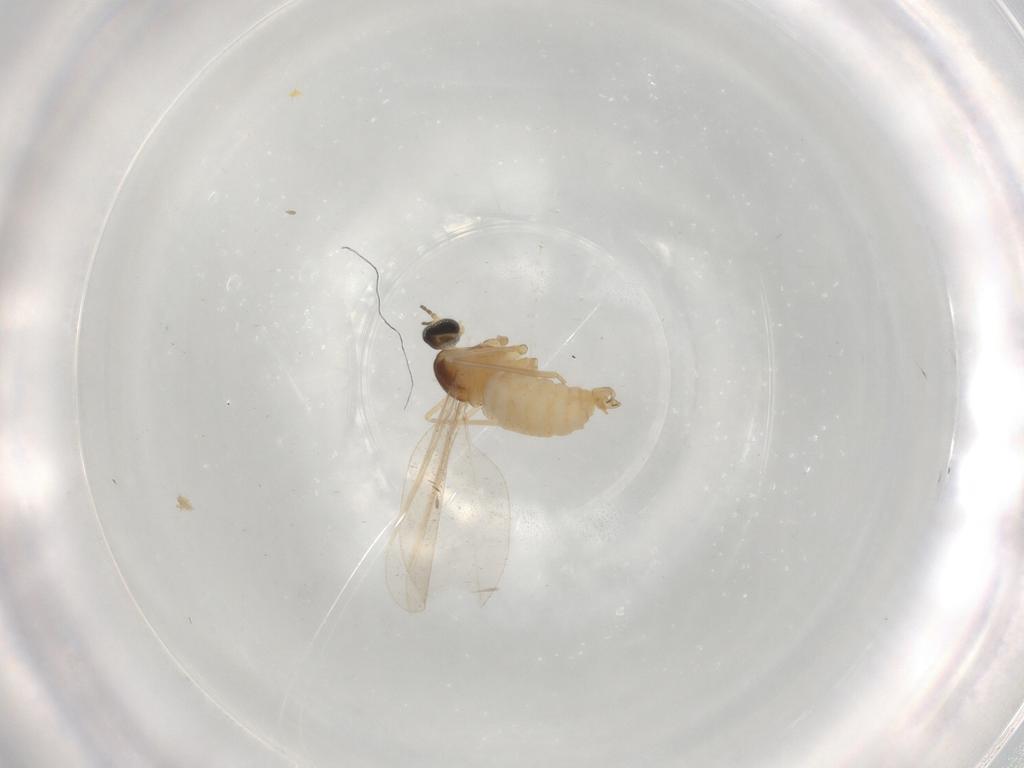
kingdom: Animalia
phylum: Arthropoda
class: Insecta
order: Diptera
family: Cecidomyiidae
